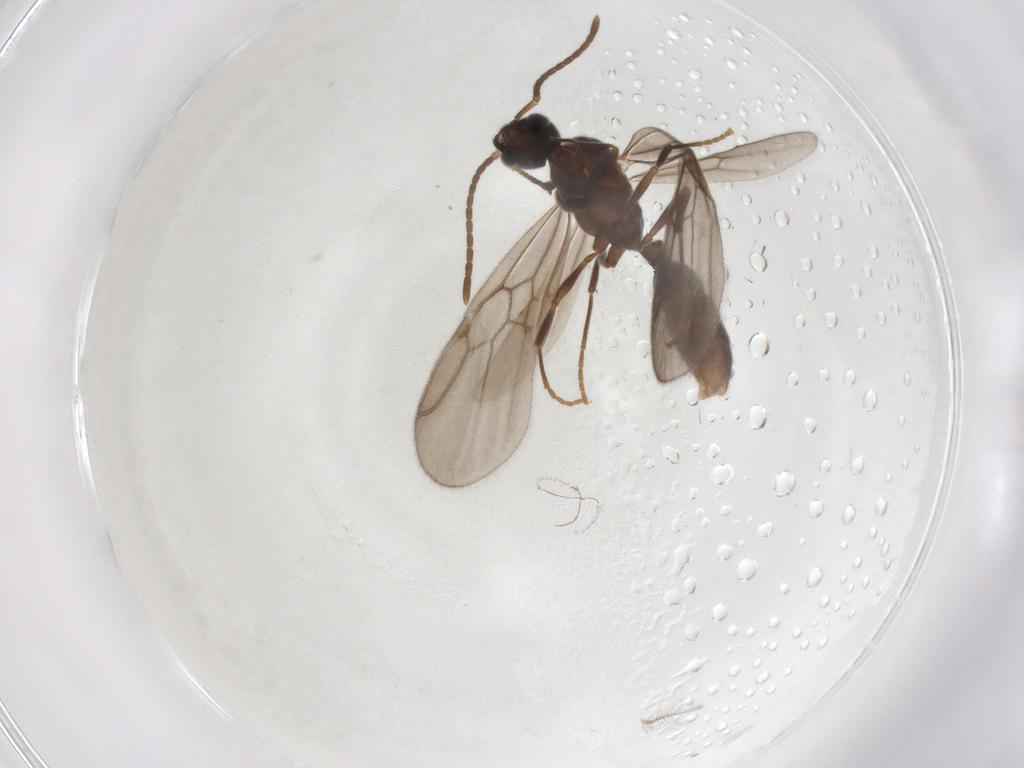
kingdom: Animalia
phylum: Arthropoda
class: Insecta
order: Hymenoptera
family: Formicidae
